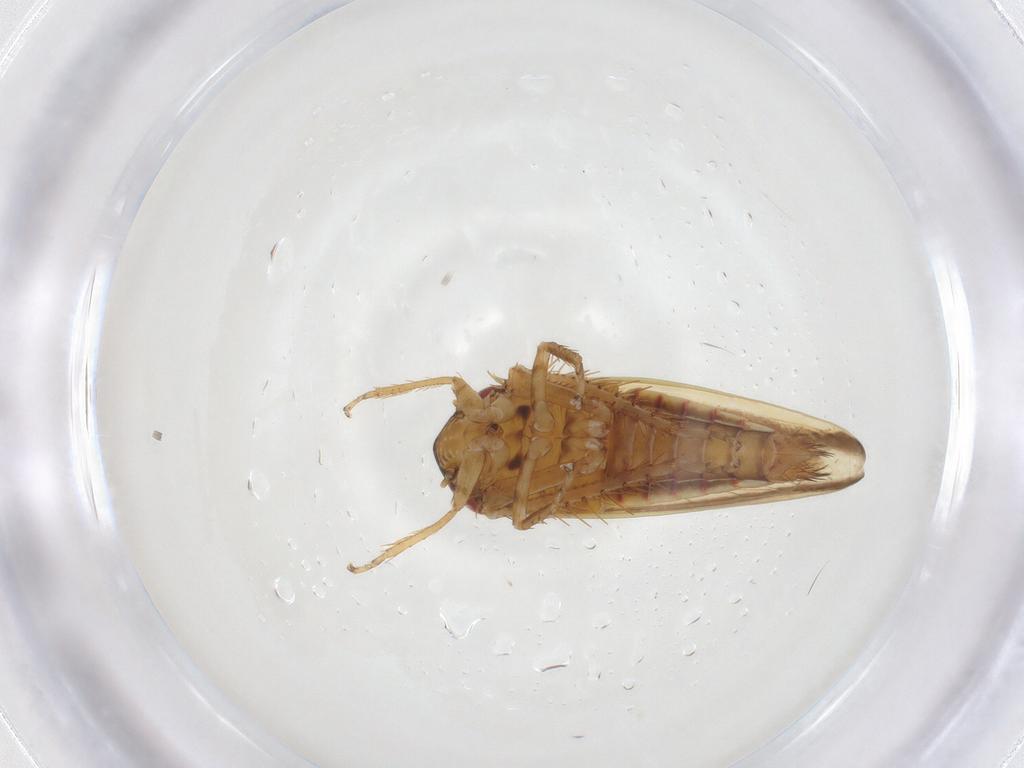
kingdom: Animalia
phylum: Arthropoda
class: Insecta
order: Hemiptera
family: Cicadellidae
